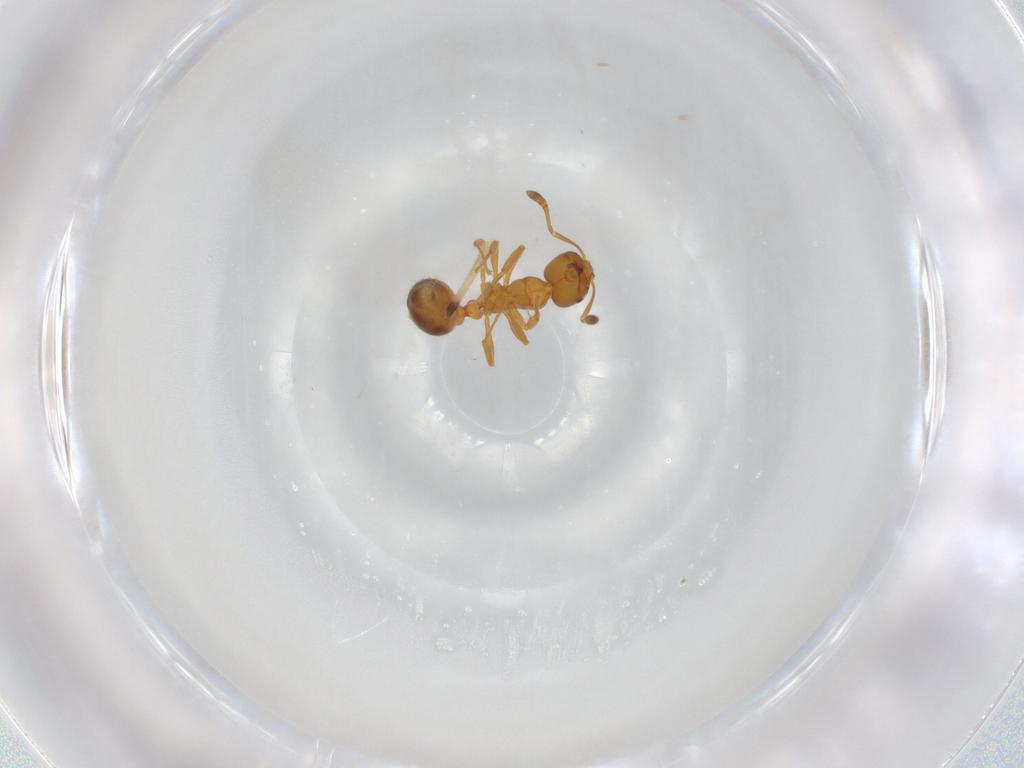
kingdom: Animalia
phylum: Arthropoda
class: Insecta
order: Hymenoptera
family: Formicidae
